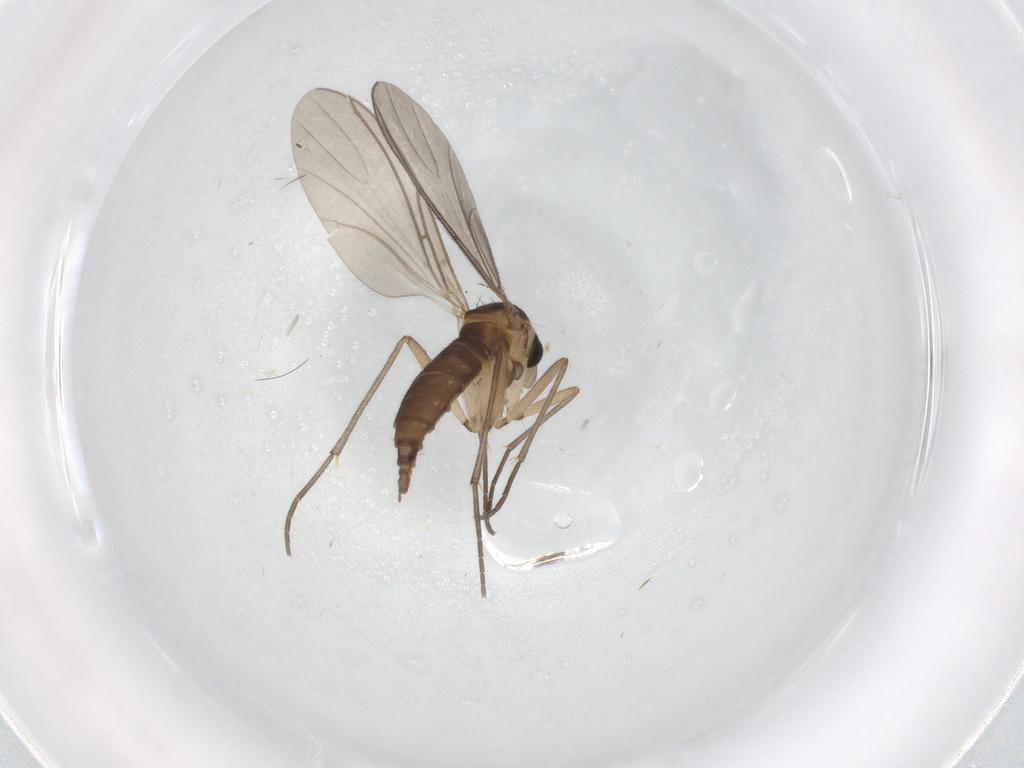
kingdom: Animalia
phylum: Arthropoda
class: Insecta
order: Diptera
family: Sciaridae
